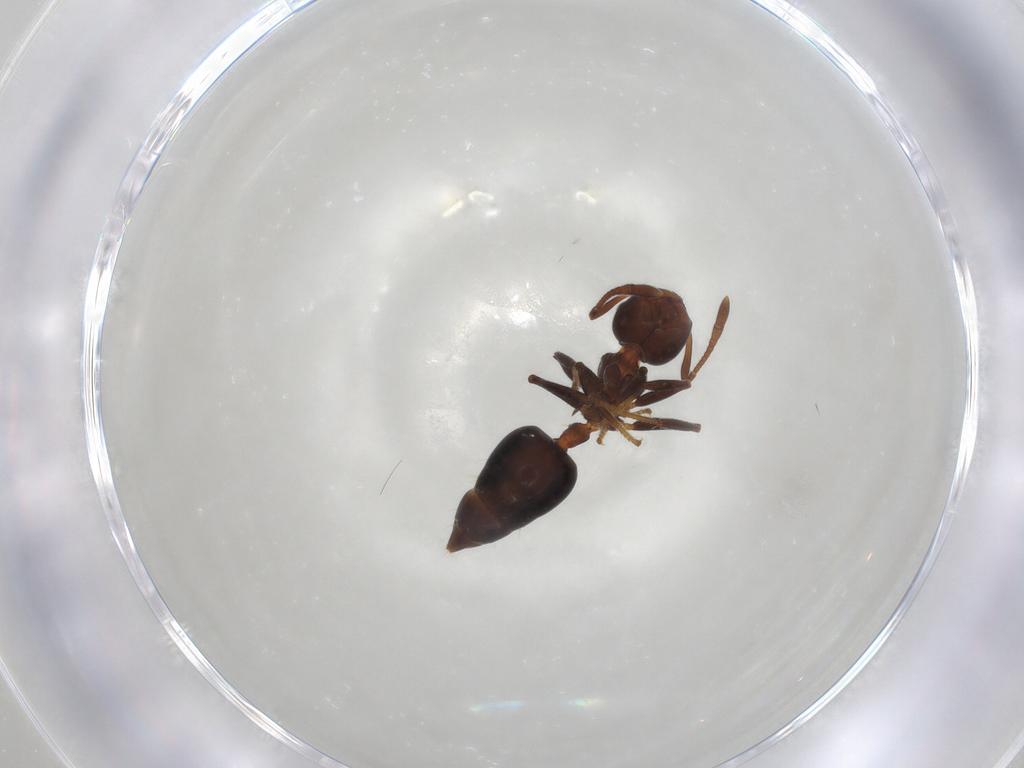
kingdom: Animalia
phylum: Arthropoda
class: Insecta
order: Hymenoptera
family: Formicidae
